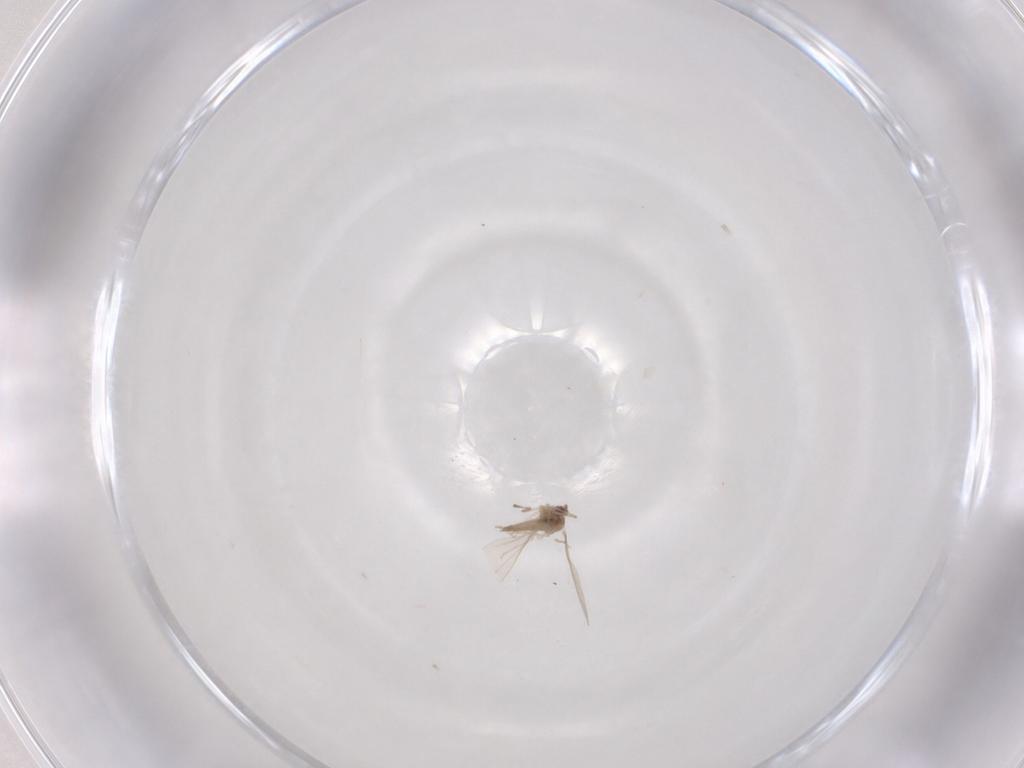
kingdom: Animalia
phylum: Arthropoda
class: Insecta
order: Diptera
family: Cecidomyiidae
